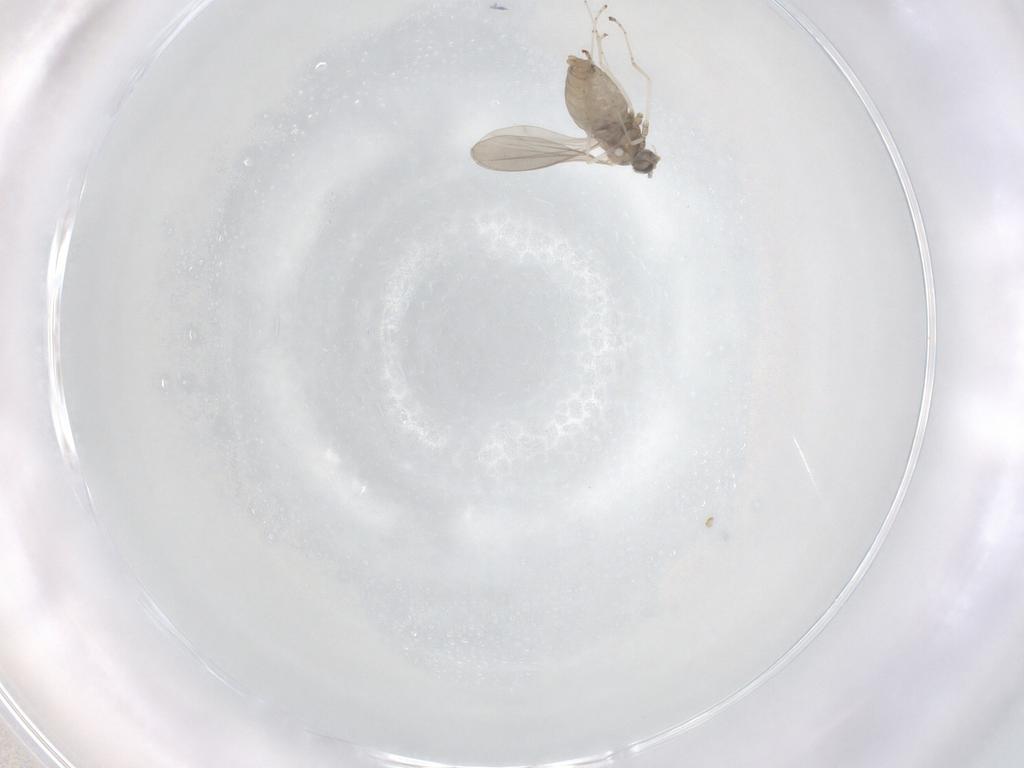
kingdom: Animalia
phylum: Arthropoda
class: Insecta
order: Diptera
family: Cecidomyiidae
